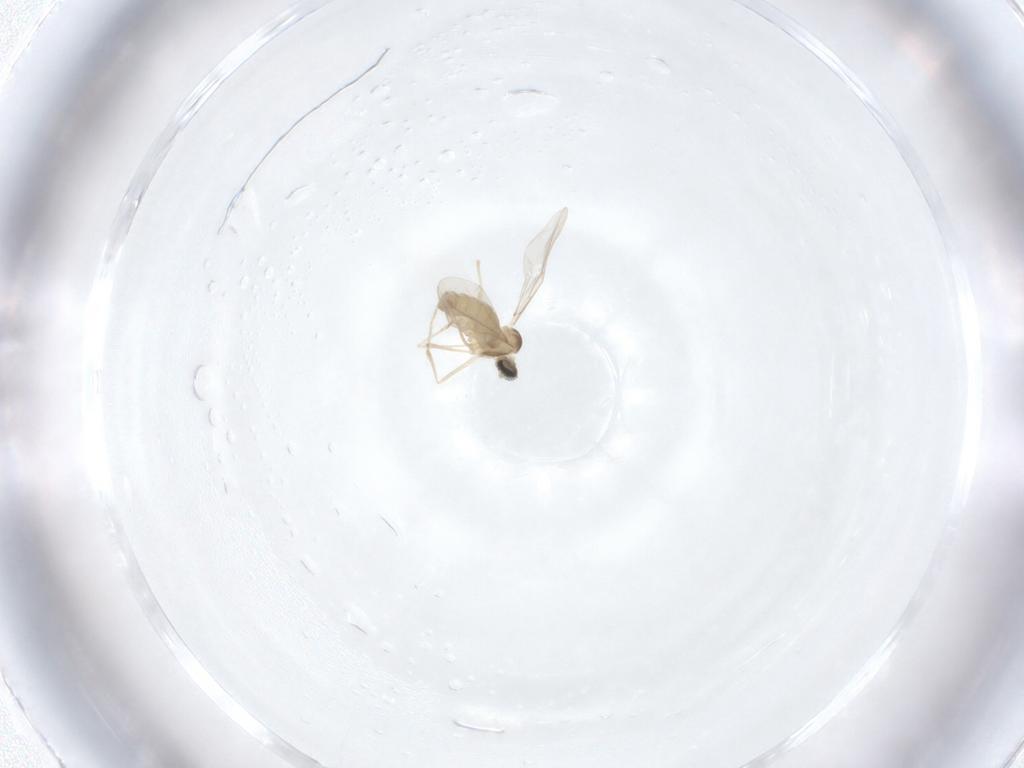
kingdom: Animalia
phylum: Arthropoda
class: Insecta
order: Diptera
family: Cecidomyiidae
